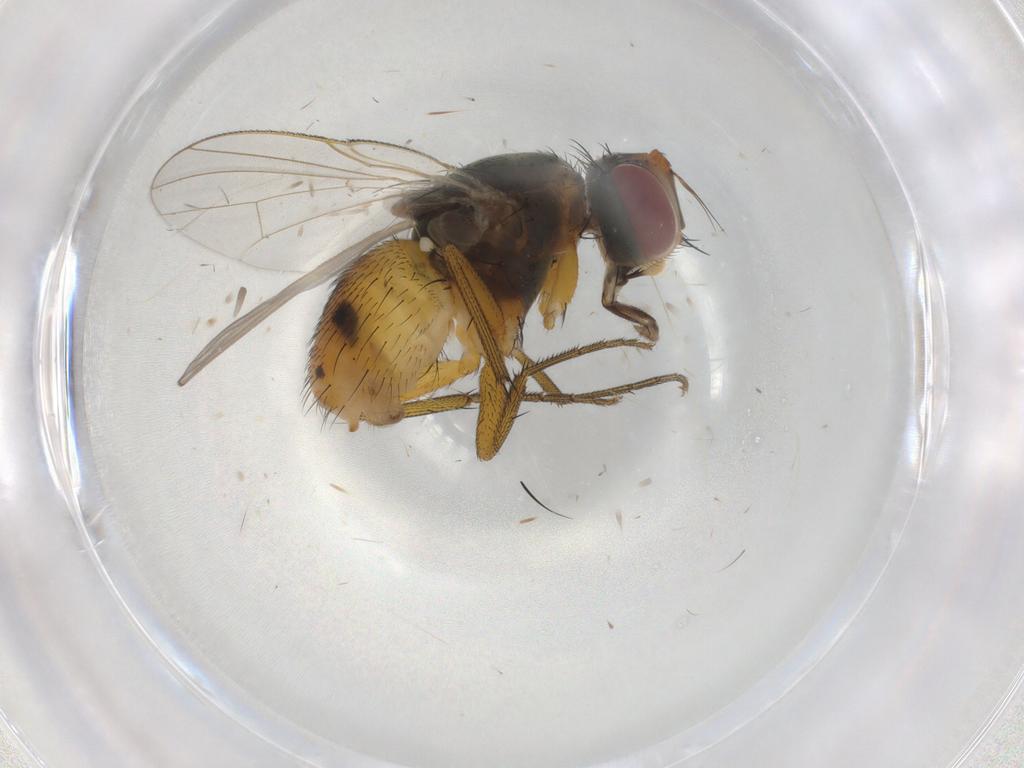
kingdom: Animalia
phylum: Arthropoda
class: Insecta
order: Diptera
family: Muscidae
